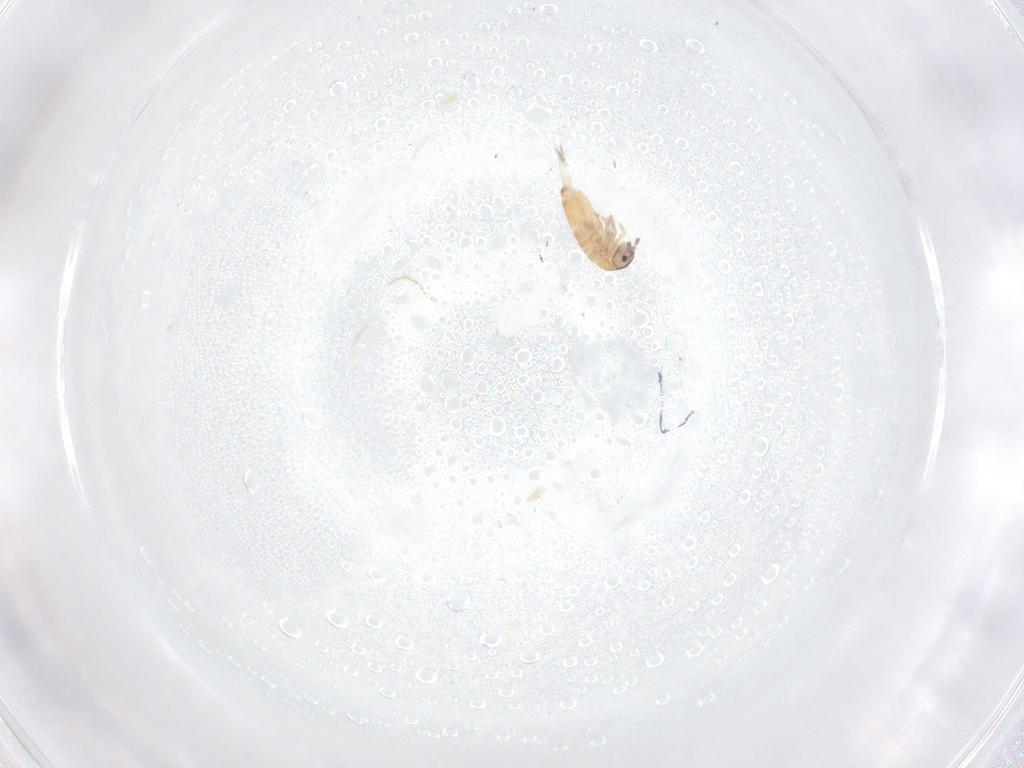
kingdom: Animalia
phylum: Arthropoda
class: Collembola
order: Entomobryomorpha
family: Entomobryidae
